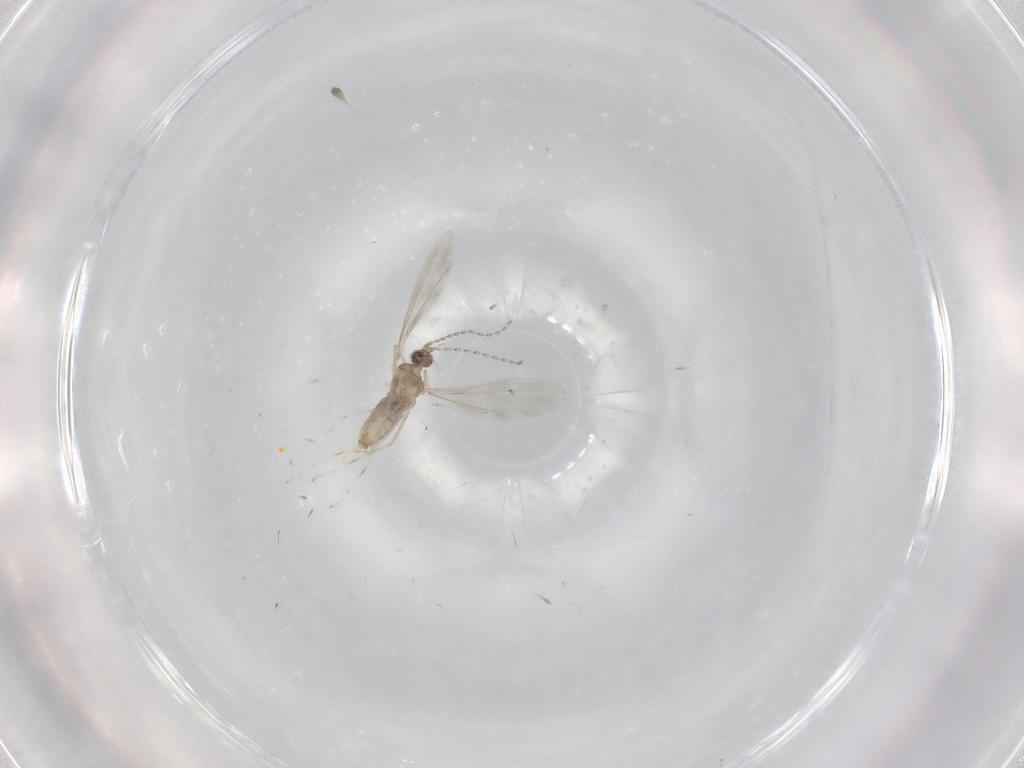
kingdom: Animalia
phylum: Arthropoda
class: Insecta
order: Diptera
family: Cecidomyiidae
